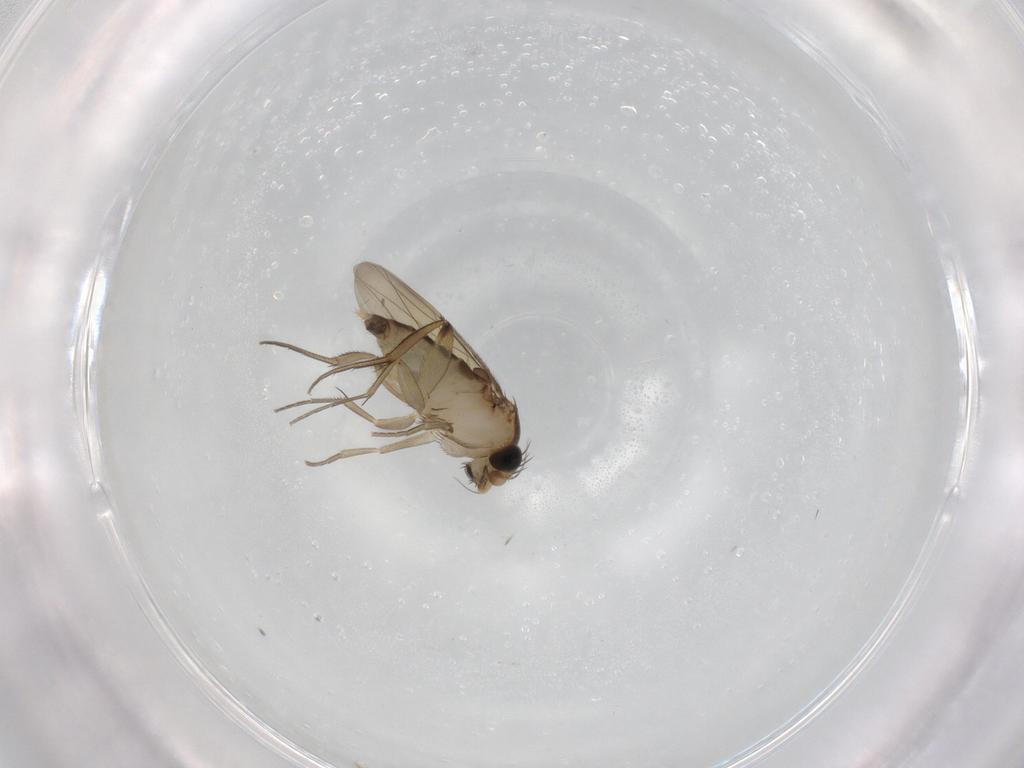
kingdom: Animalia
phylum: Arthropoda
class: Insecta
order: Diptera
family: Phoridae
